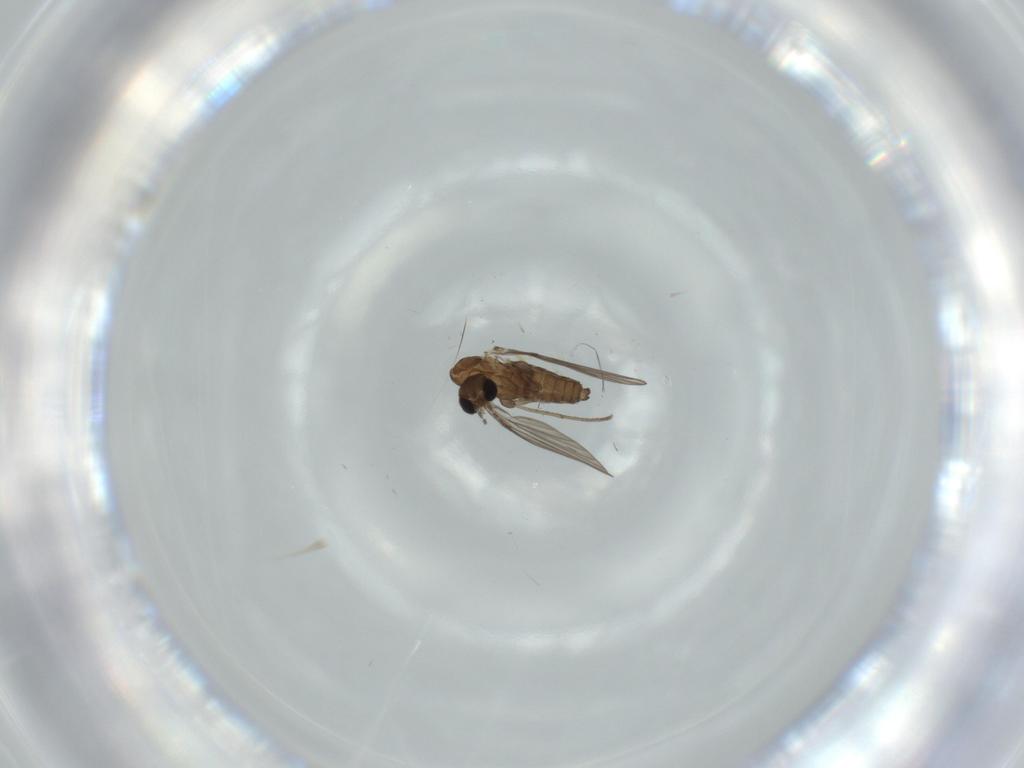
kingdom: Animalia
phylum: Arthropoda
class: Insecta
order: Diptera
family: Psychodidae
